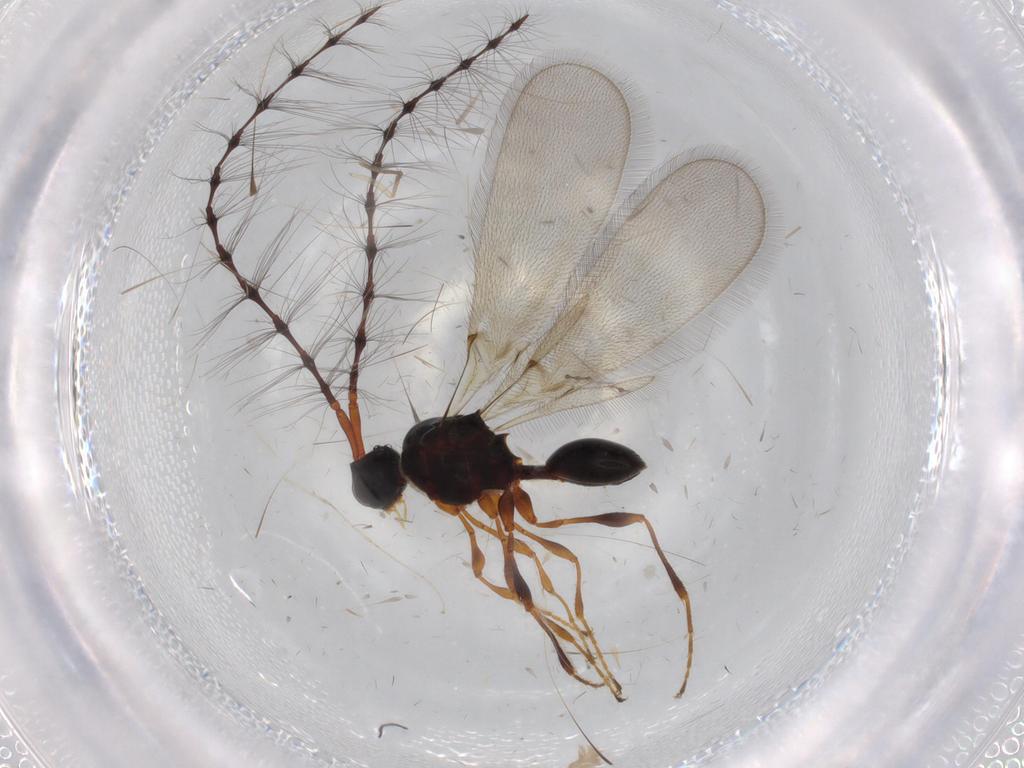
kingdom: Animalia
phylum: Arthropoda
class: Insecta
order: Hymenoptera
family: Diapriidae
